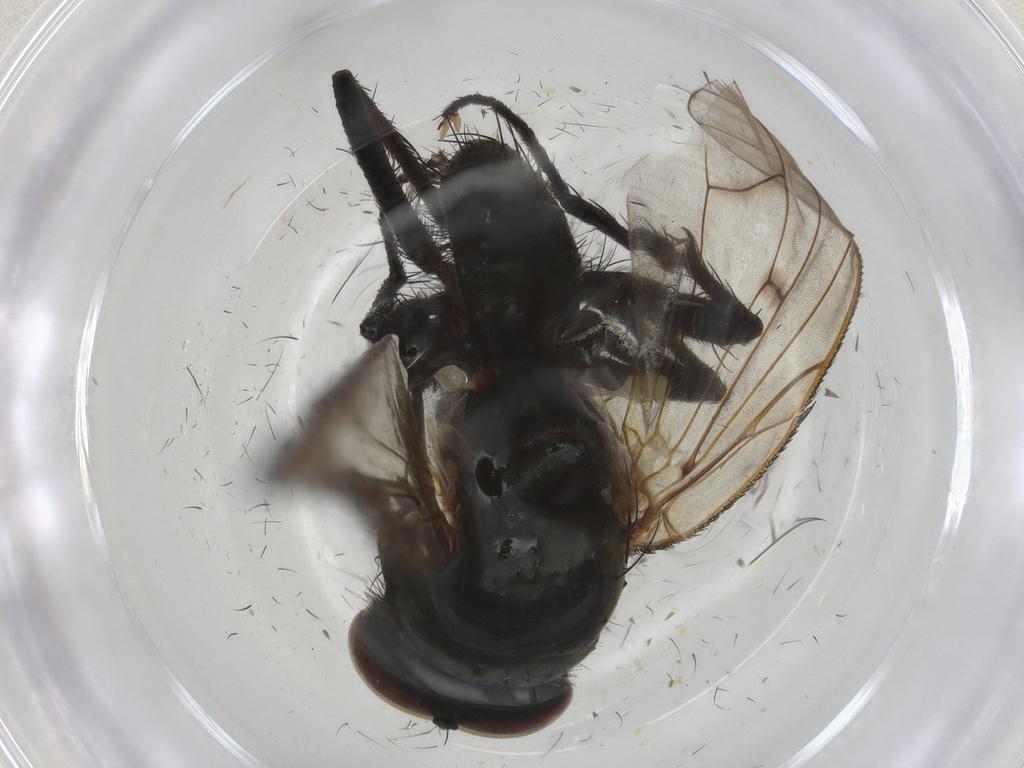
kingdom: Animalia
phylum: Arthropoda
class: Insecta
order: Diptera
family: Anthomyiidae
